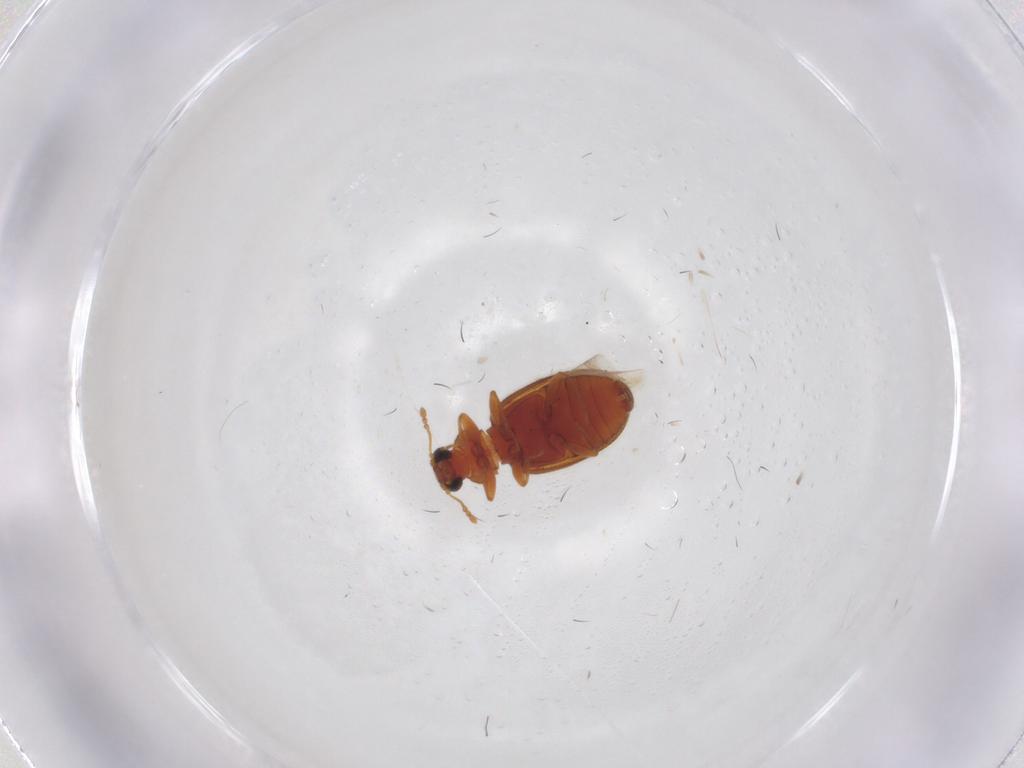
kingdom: Animalia
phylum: Arthropoda
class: Insecta
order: Coleoptera
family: Latridiidae
